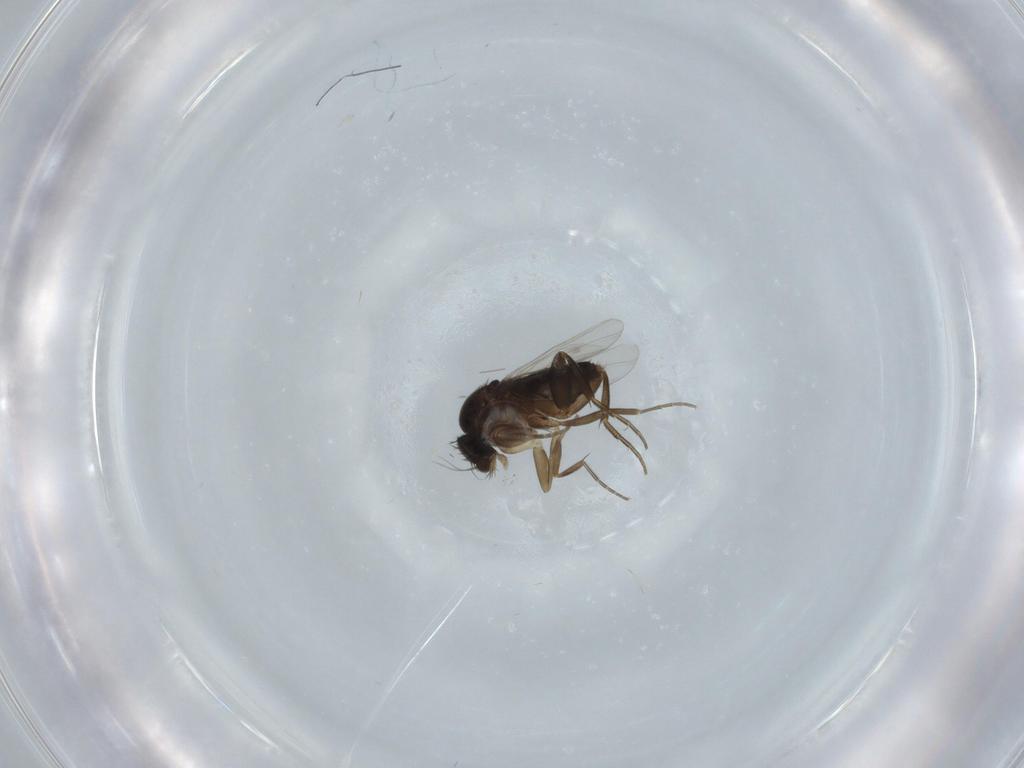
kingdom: Animalia
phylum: Arthropoda
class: Insecta
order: Diptera
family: Phoridae
